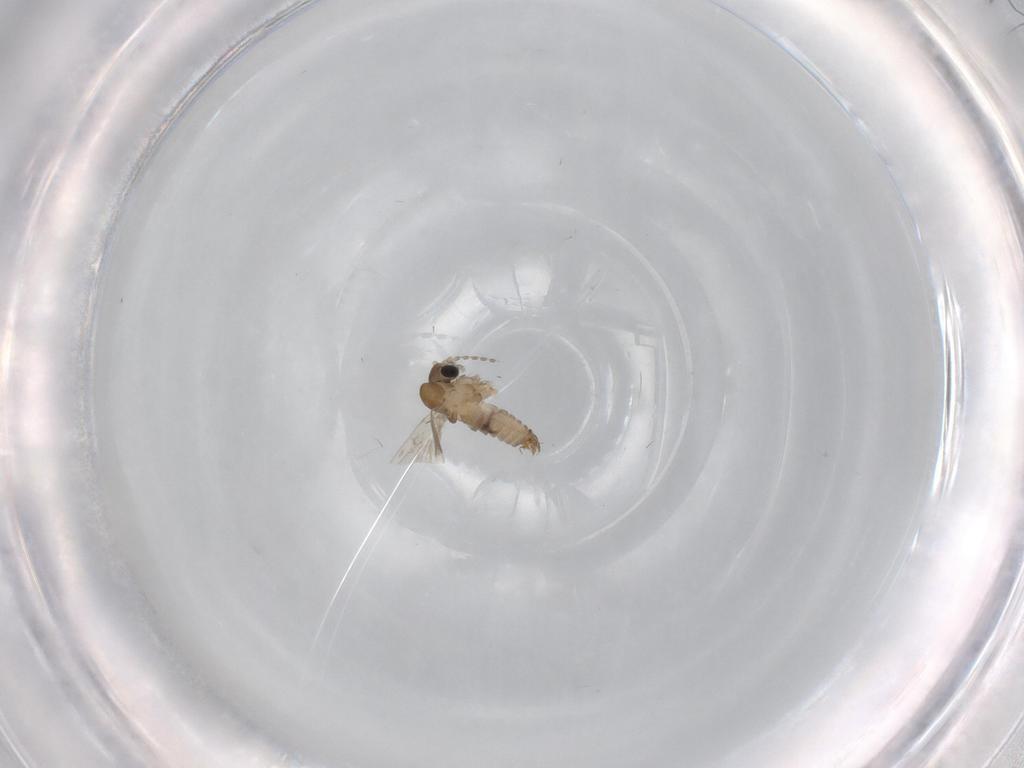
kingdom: Animalia
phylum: Arthropoda
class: Insecta
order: Diptera
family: Psychodidae
